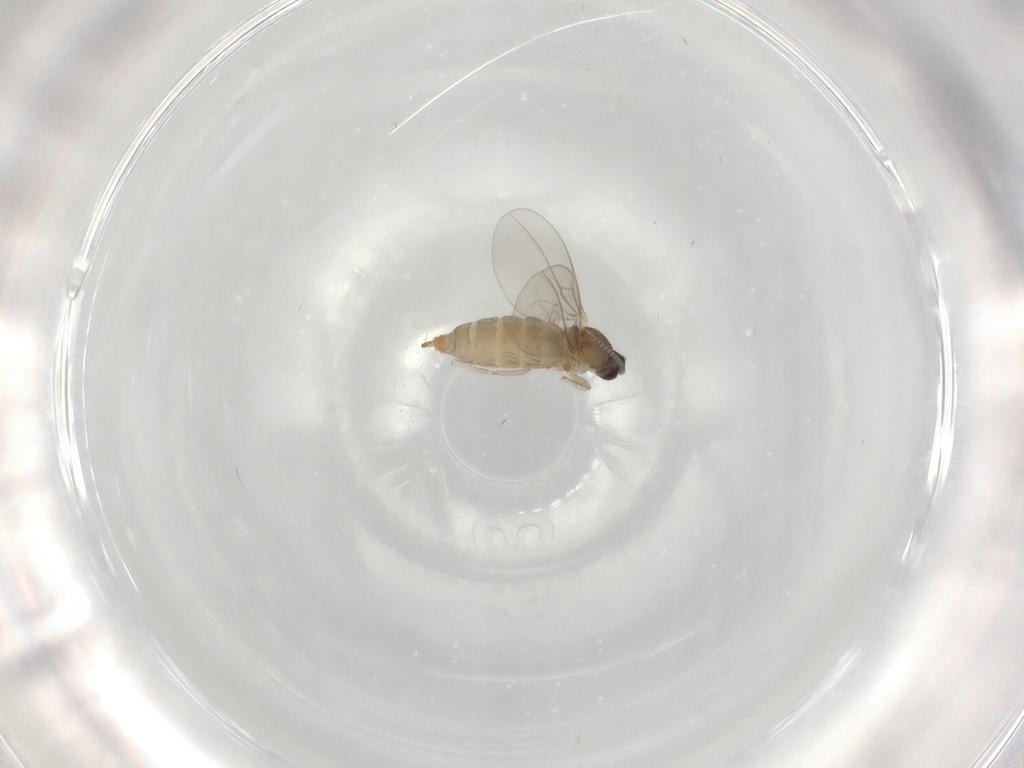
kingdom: Animalia
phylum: Arthropoda
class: Insecta
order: Diptera
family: Cecidomyiidae
